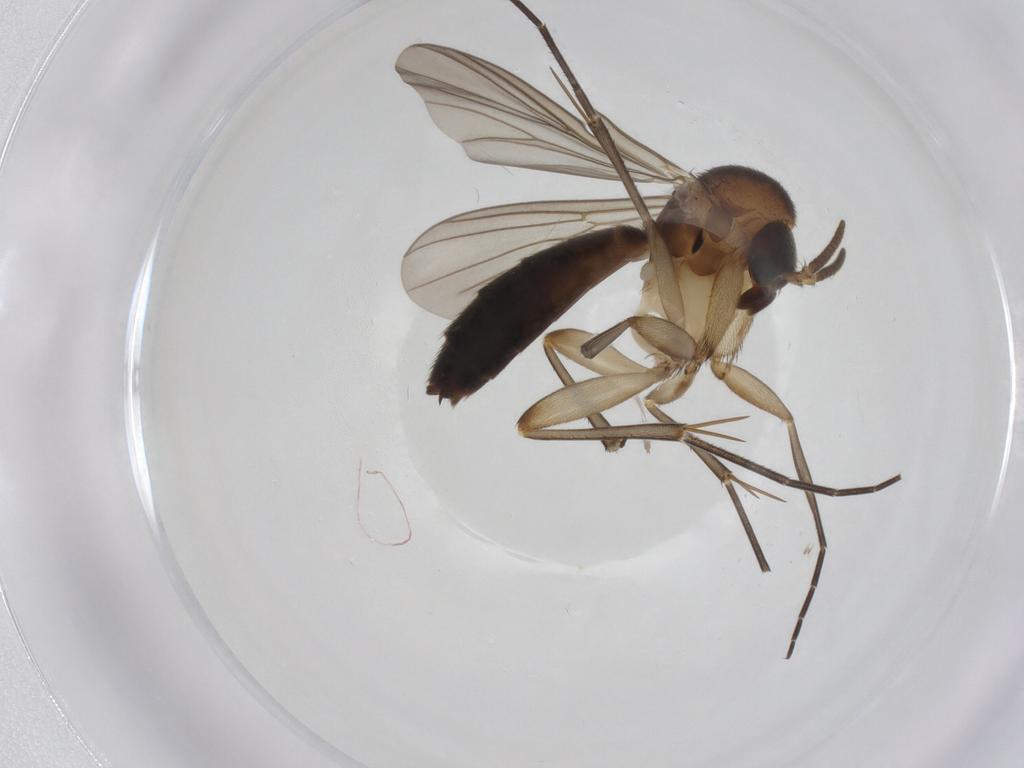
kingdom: Animalia
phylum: Arthropoda
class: Insecta
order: Diptera
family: Mycetophilidae
